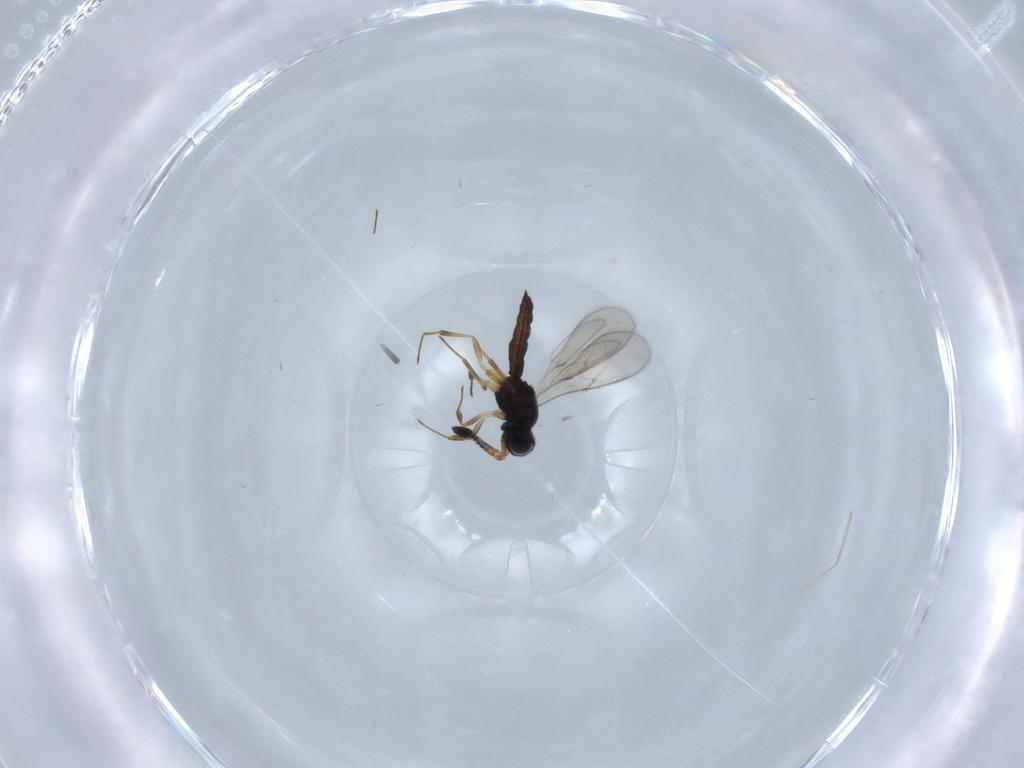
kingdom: Animalia
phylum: Arthropoda
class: Insecta
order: Hymenoptera
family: Scelionidae
